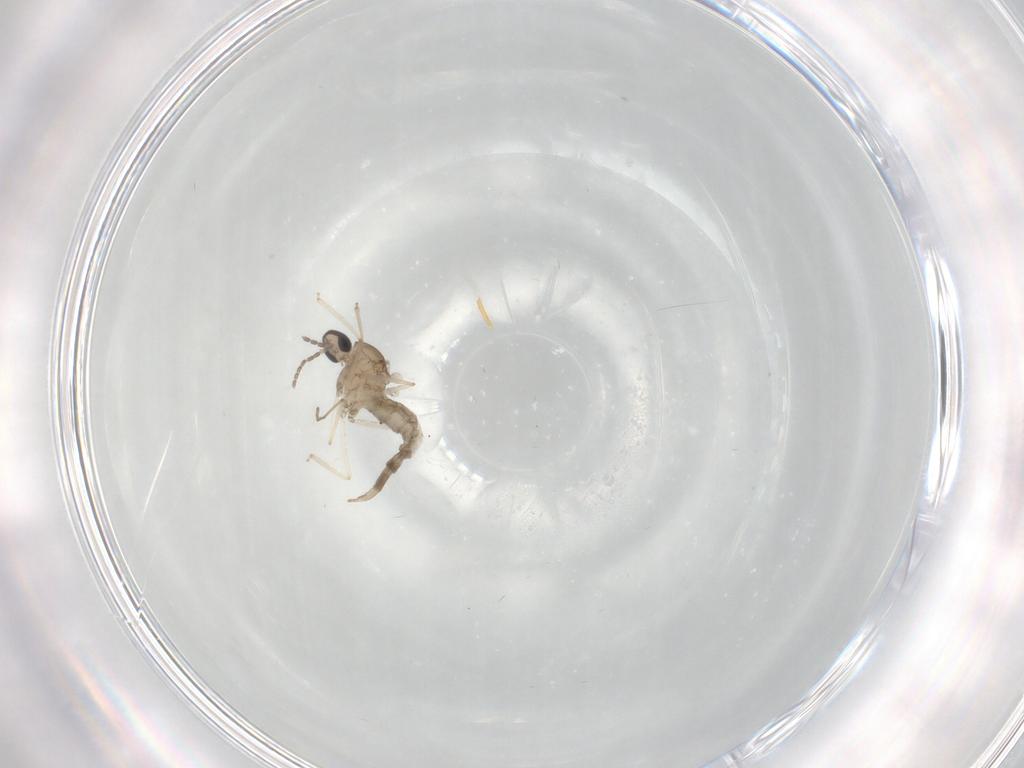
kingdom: Animalia
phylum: Arthropoda
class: Insecta
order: Diptera
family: Cecidomyiidae
